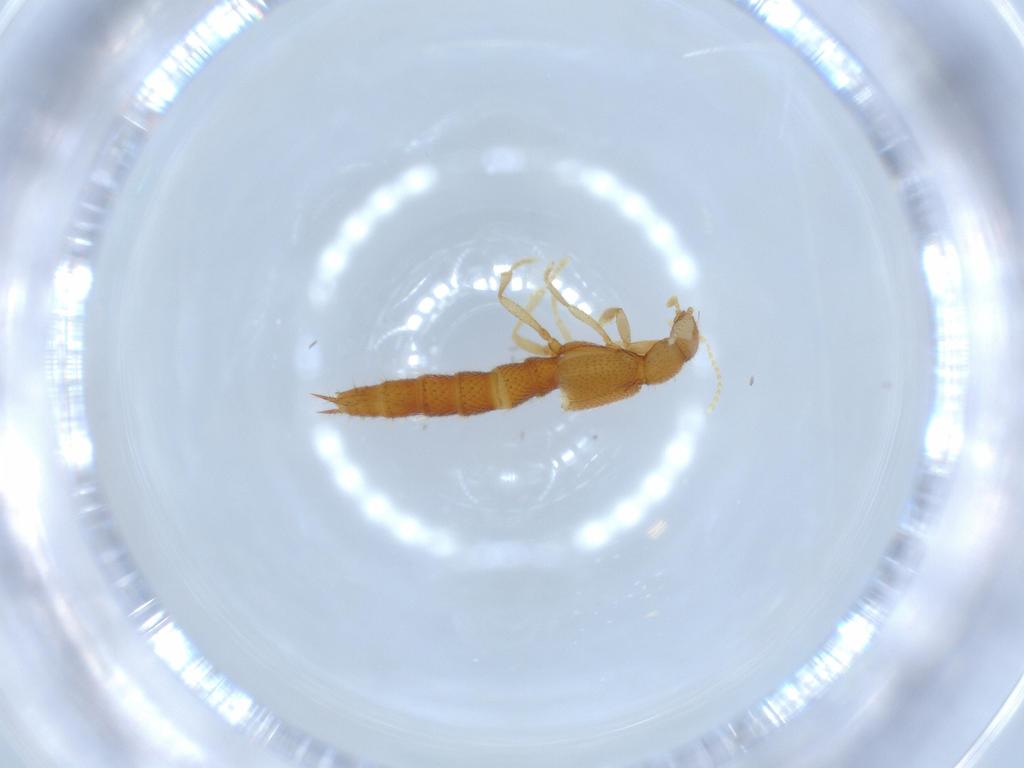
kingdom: Animalia
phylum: Arthropoda
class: Insecta
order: Coleoptera
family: Staphylinidae
